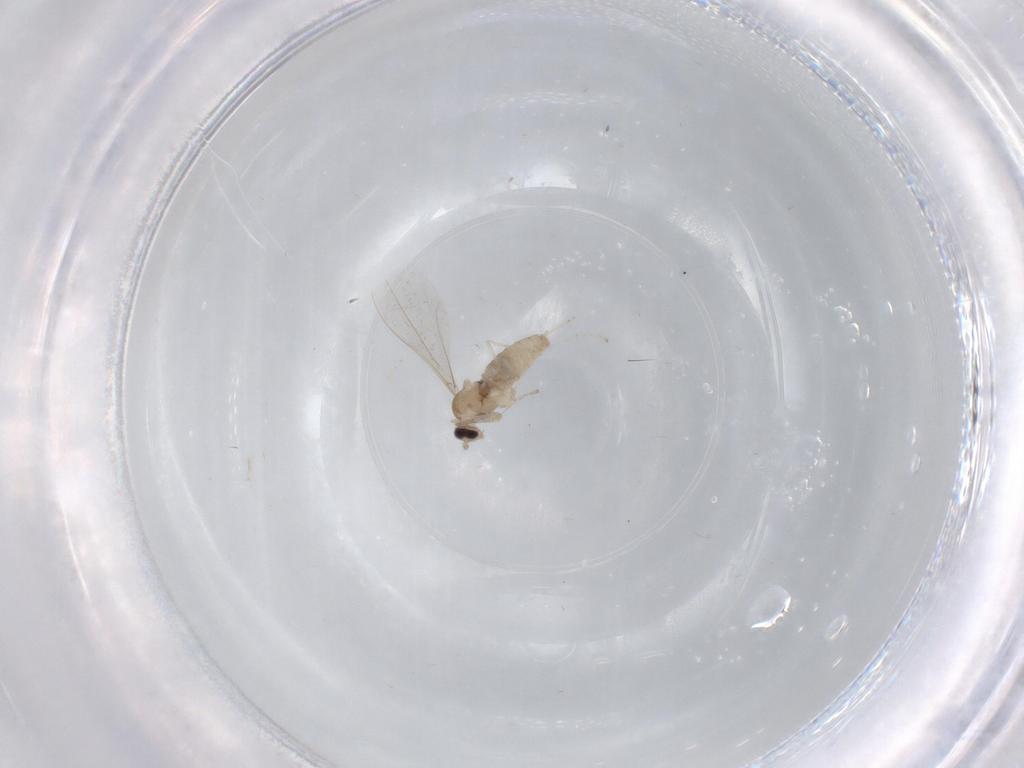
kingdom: Animalia
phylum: Arthropoda
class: Insecta
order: Diptera
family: Cecidomyiidae
